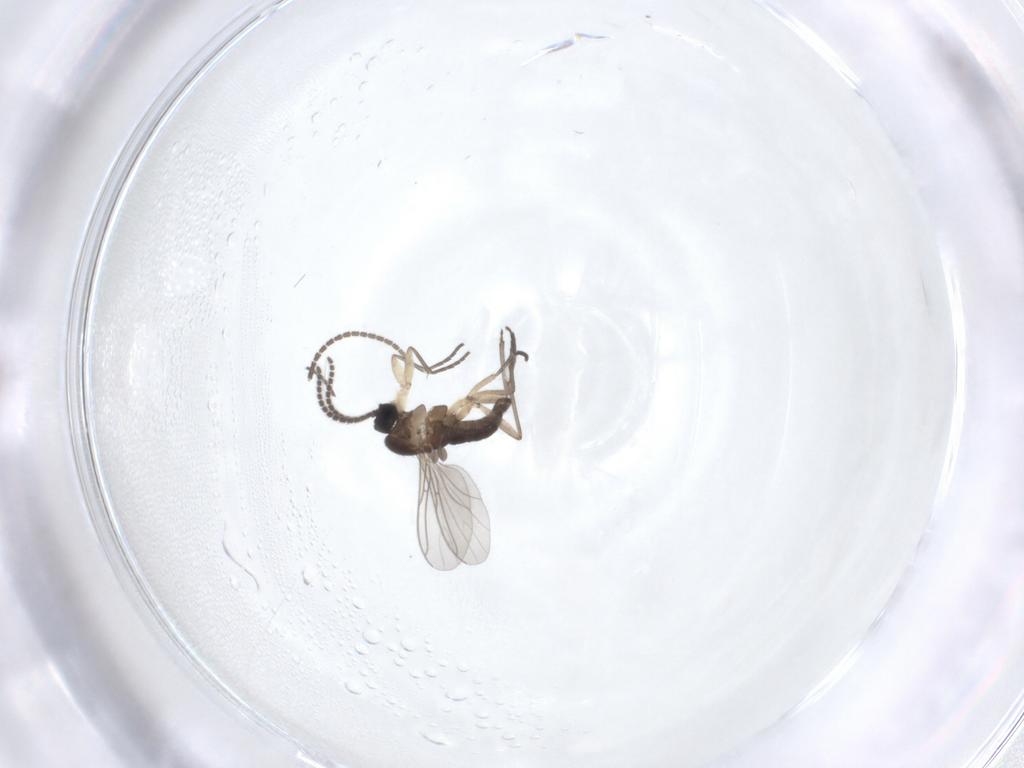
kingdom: Animalia
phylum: Arthropoda
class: Insecta
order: Diptera
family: Sciaridae
